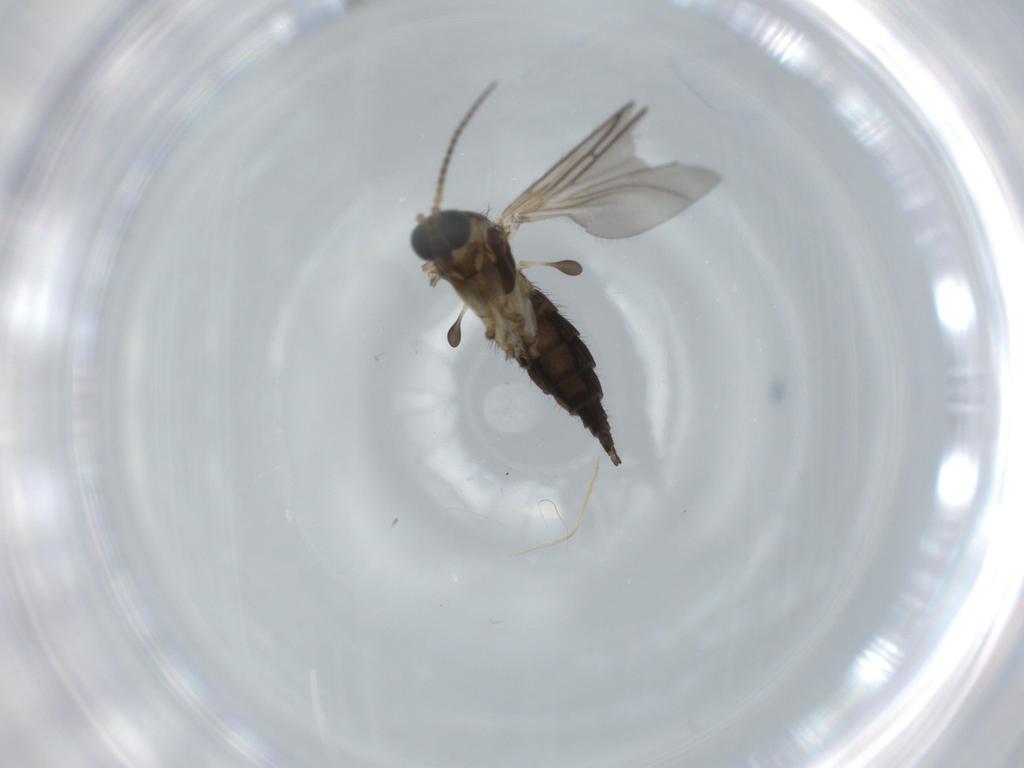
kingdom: Animalia
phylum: Arthropoda
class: Insecta
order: Diptera
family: Sciaridae
